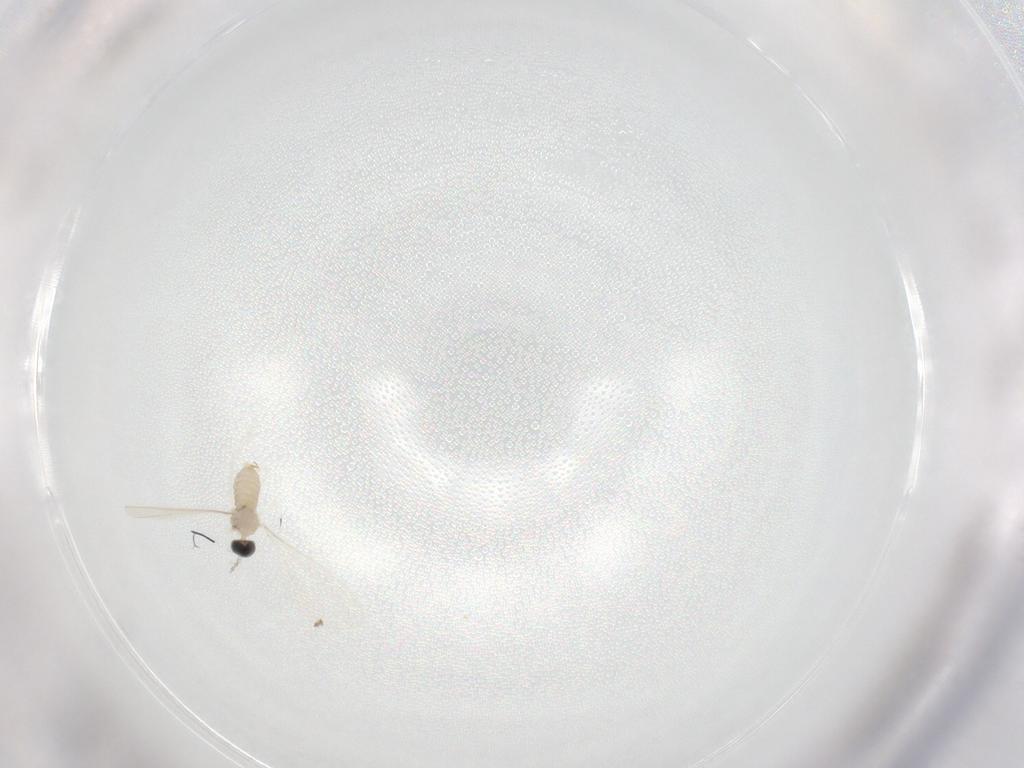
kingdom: Animalia
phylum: Arthropoda
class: Insecta
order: Diptera
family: Cecidomyiidae
